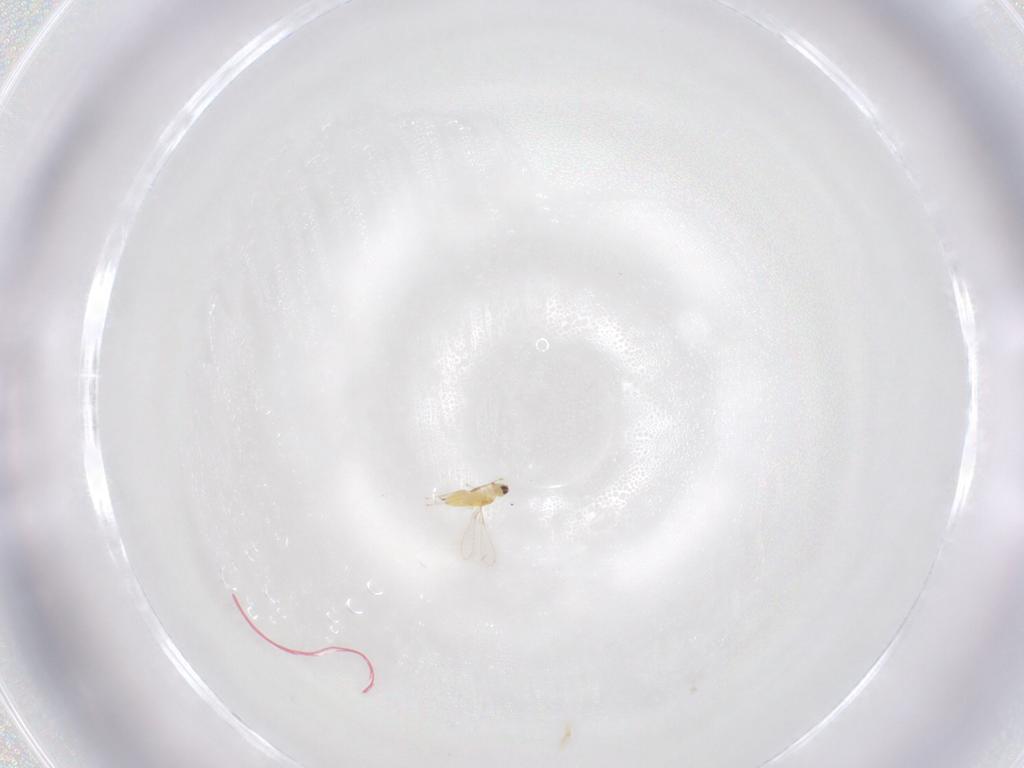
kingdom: Animalia
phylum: Arthropoda
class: Insecta
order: Hymenoptera
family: Mymaridae
